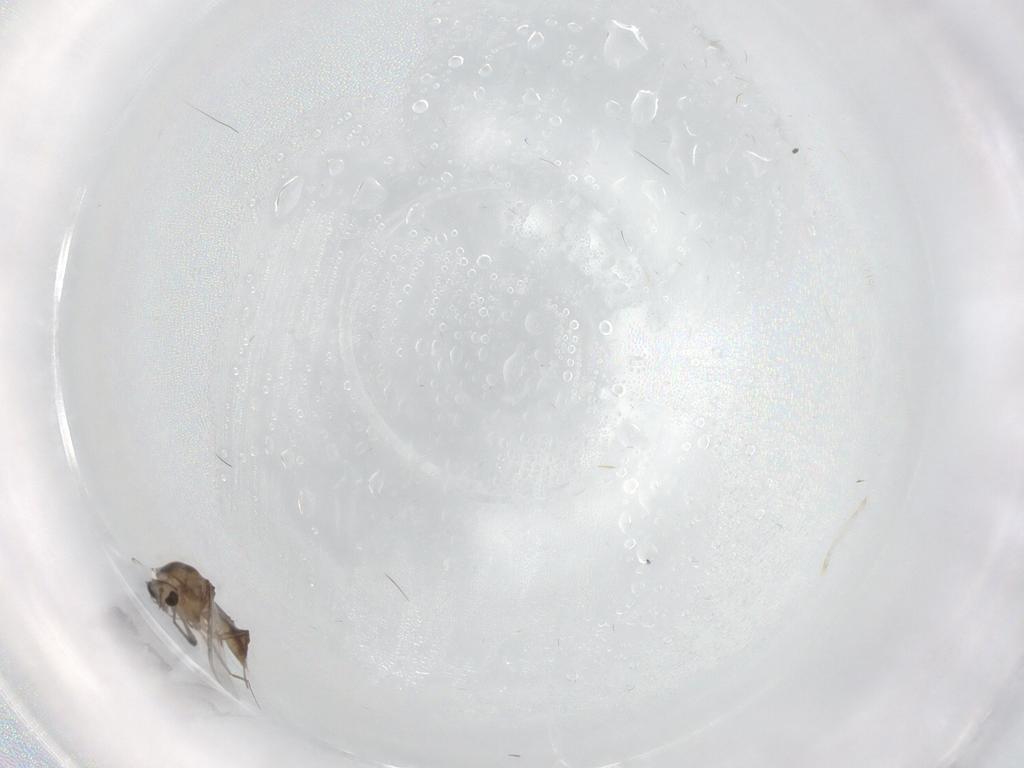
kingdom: Animalia
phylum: Arthropoda
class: Insecta
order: Diptera
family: Chironomidae
